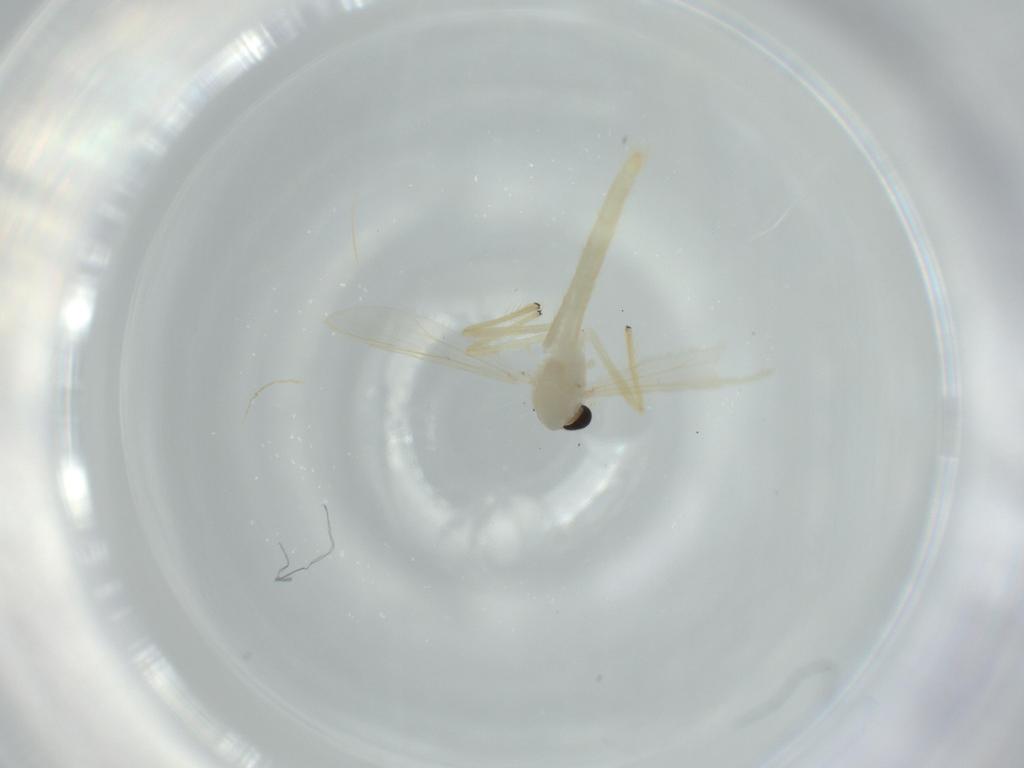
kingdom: Animalia
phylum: Arthropoda
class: Insecta
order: Diptera
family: Chironomidae
